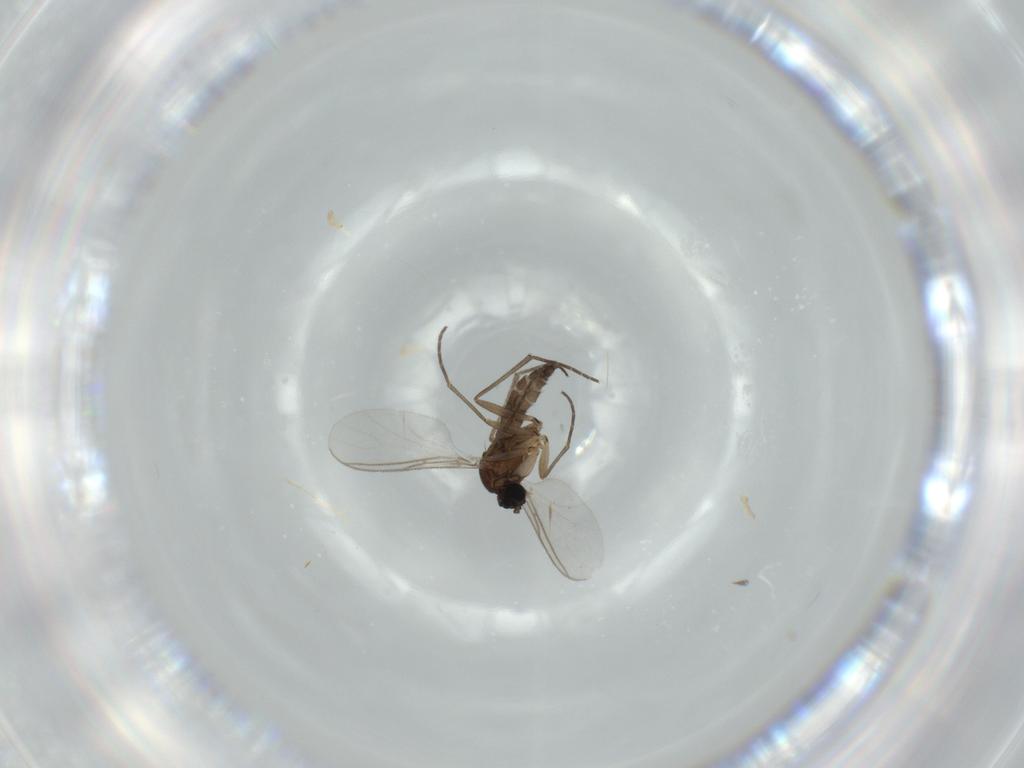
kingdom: Animalia
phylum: Arthropoda
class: Insecta
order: Diptera
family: Sciaridae
